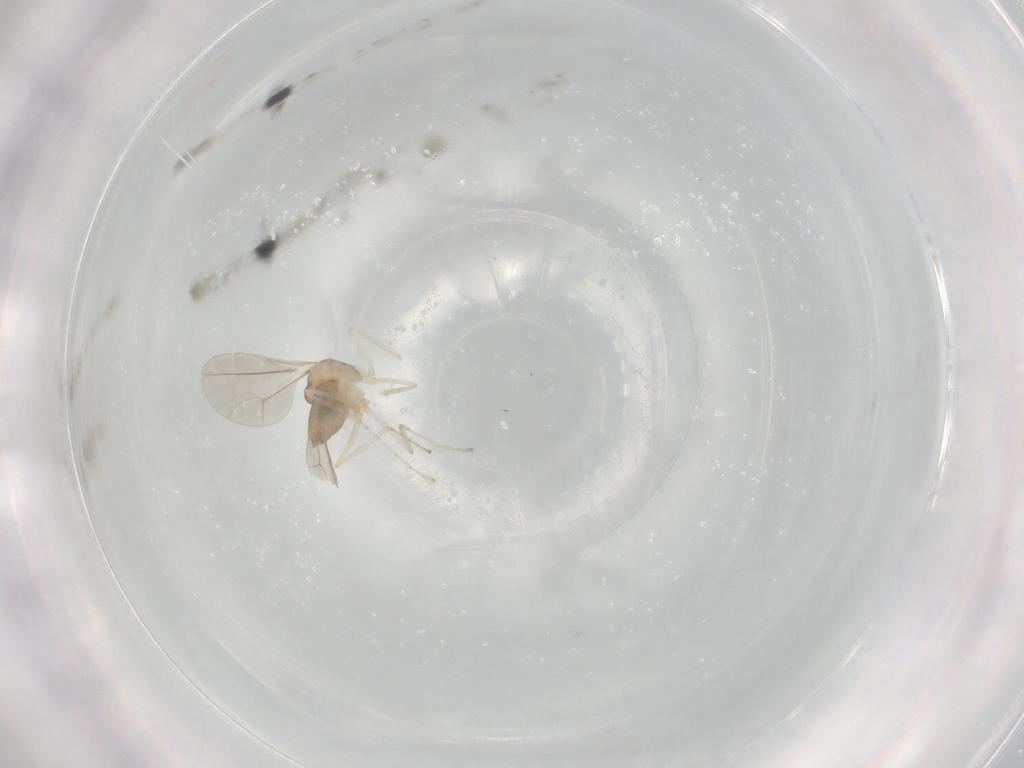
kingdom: Animalia
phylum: Arthropoda
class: Insecta
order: Diptera
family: Cecidomyiidae
